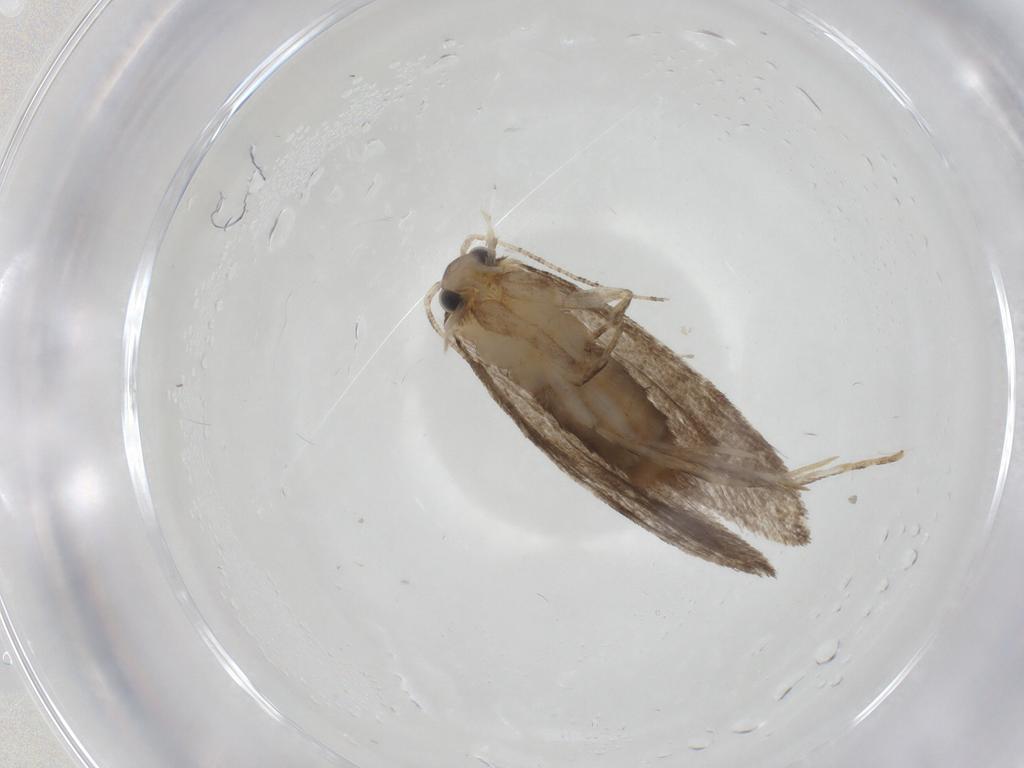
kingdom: Animalia
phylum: Arthropoda
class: Insecta
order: Lepidoptera
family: Tineidae
